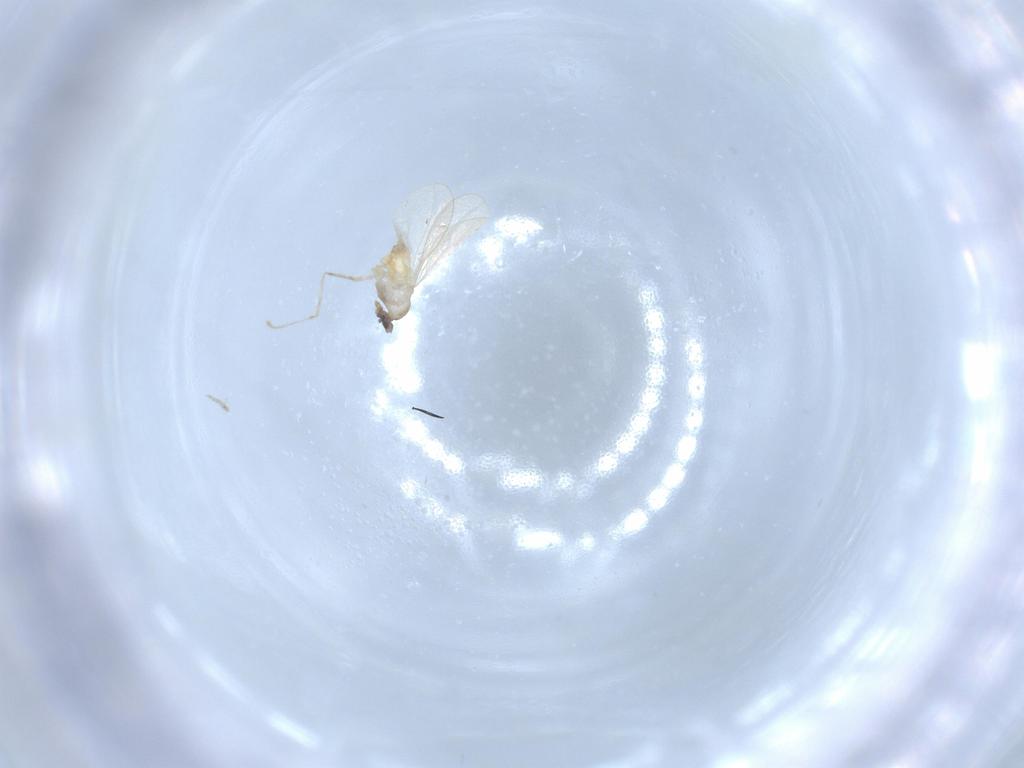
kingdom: Animalia
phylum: Arthropoda
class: Insecta
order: Diptera
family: Cecidomyiidae
